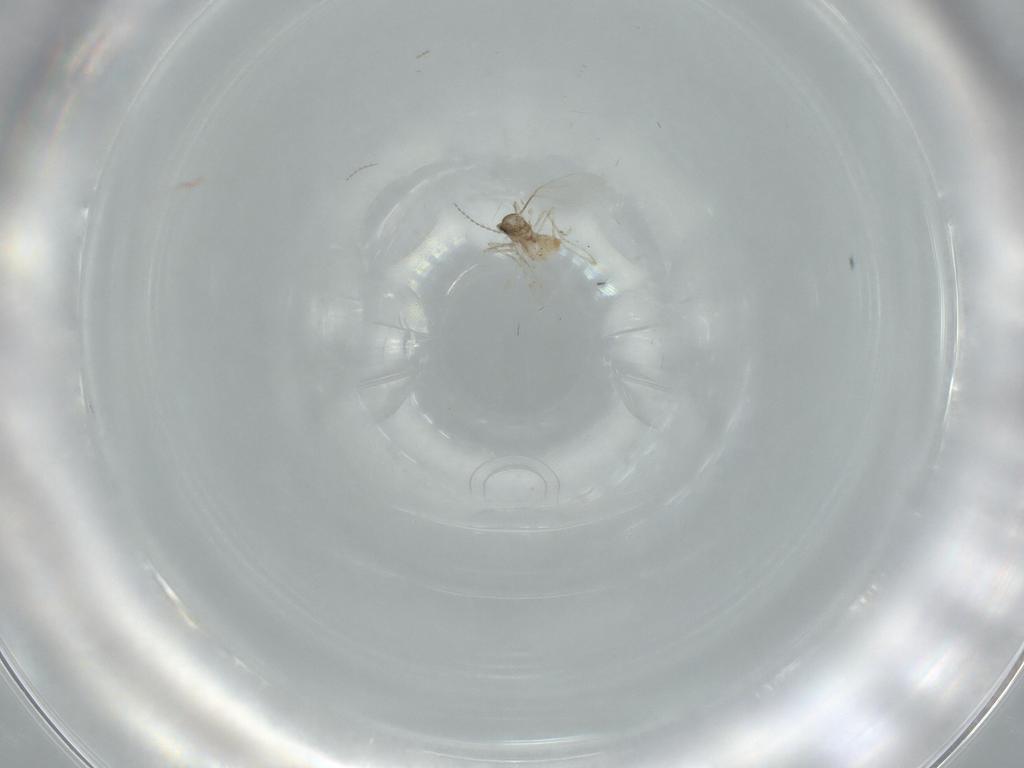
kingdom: Animalia
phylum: Arthropoda
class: Insecta
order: Diptera
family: Cecidomyiidae
